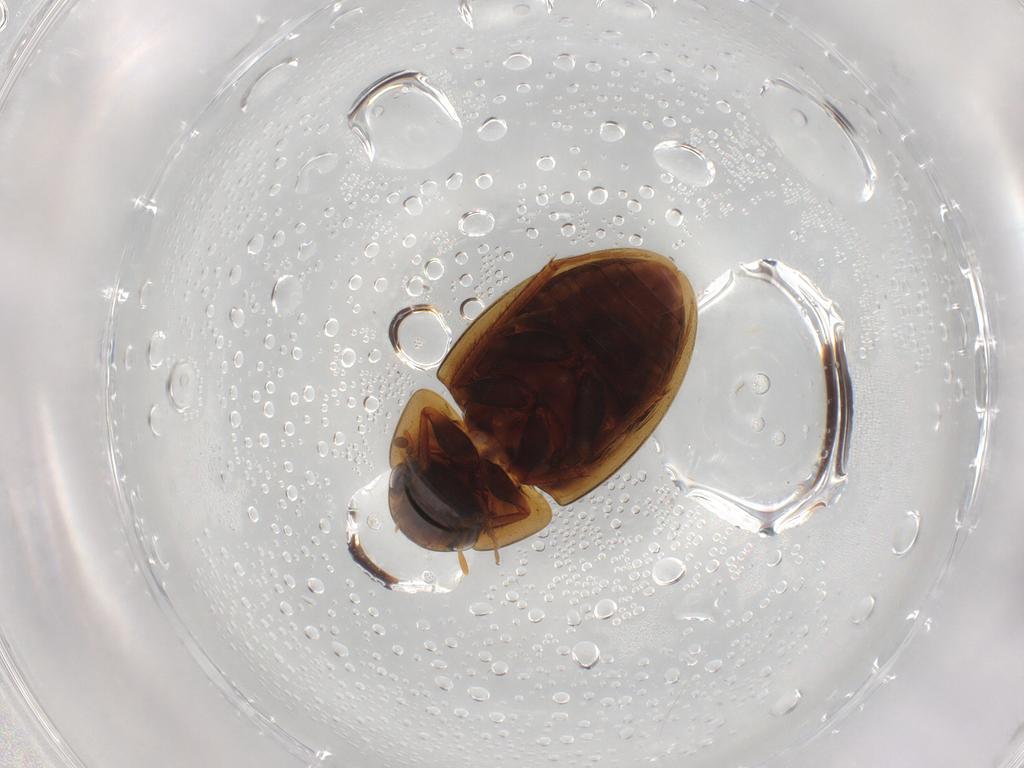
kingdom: Animalia
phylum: Arthropoda
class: Insecta
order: Coleoptera
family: Hydrophilidae
